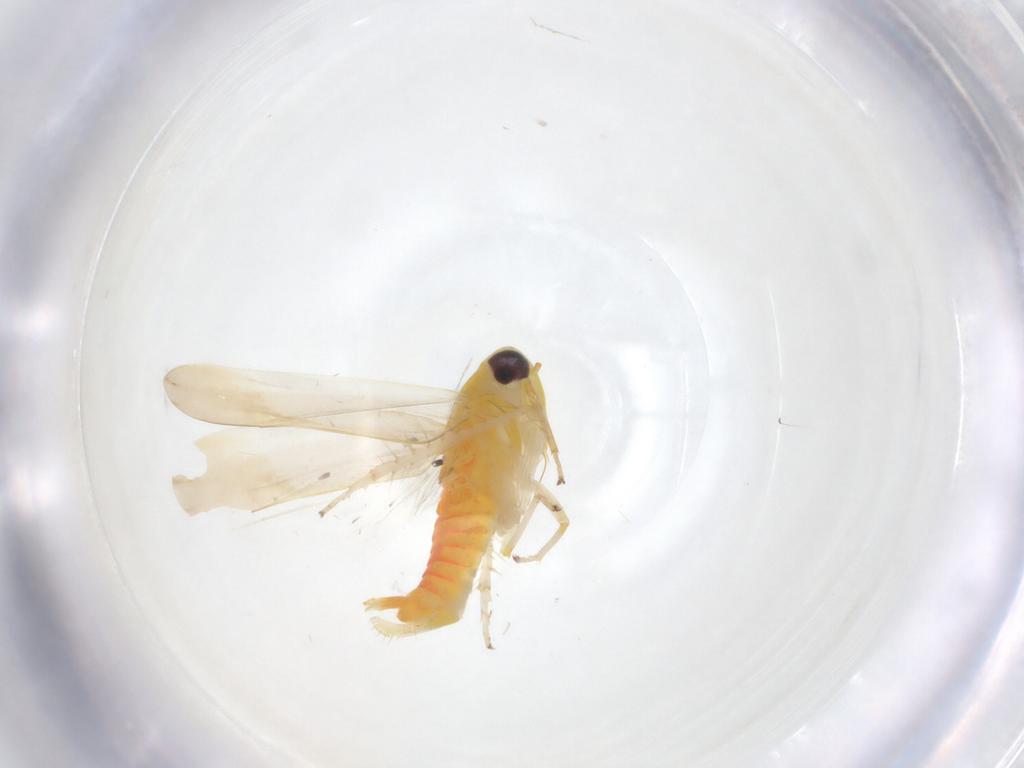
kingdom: Animalia
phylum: Arthropoda
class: Insecta
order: Hemiptera
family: Cicadellidae
